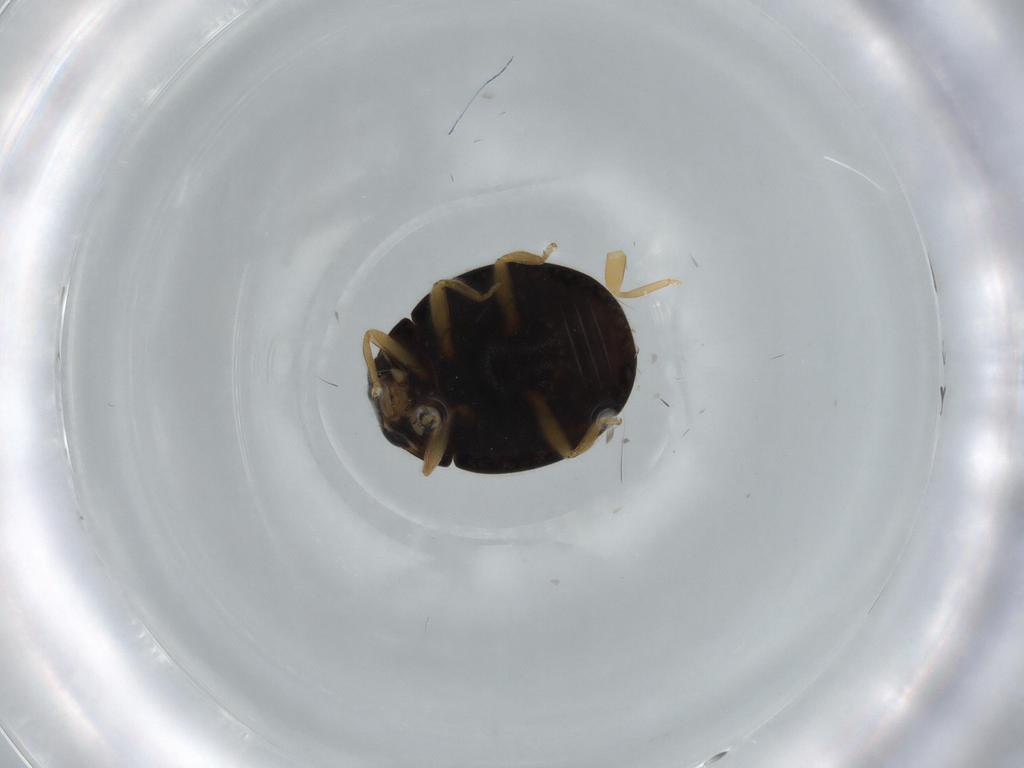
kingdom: Animalia
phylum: Arthropoda
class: Insecta
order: Coleoptera
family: Coccinellidae
